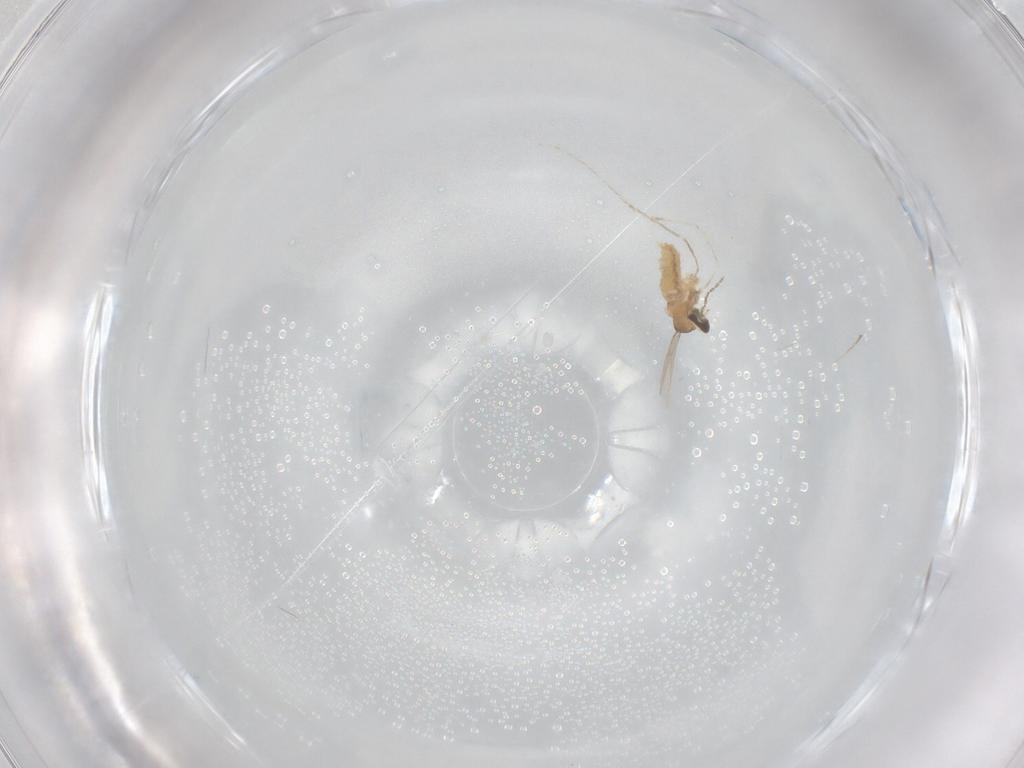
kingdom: Animalia
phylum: Arthropoda
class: Insecta
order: Diptera
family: Cecidomyiidae
